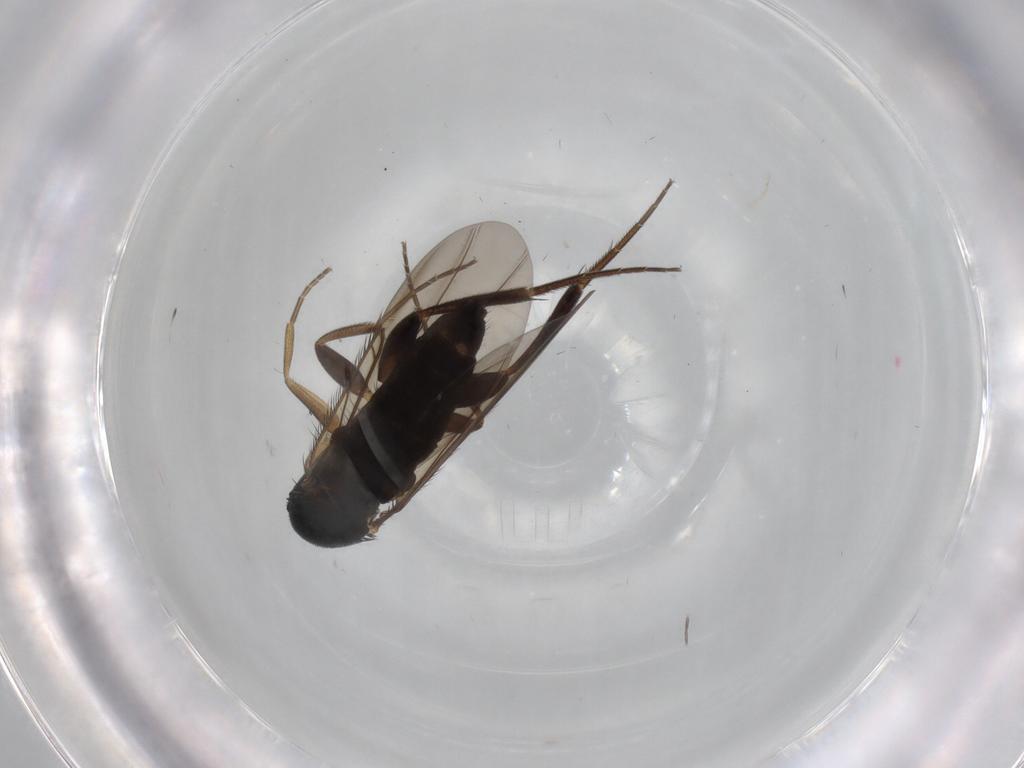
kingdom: Animalia
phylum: Arthropoda
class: Insecta
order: Diptera
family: Phoridae
